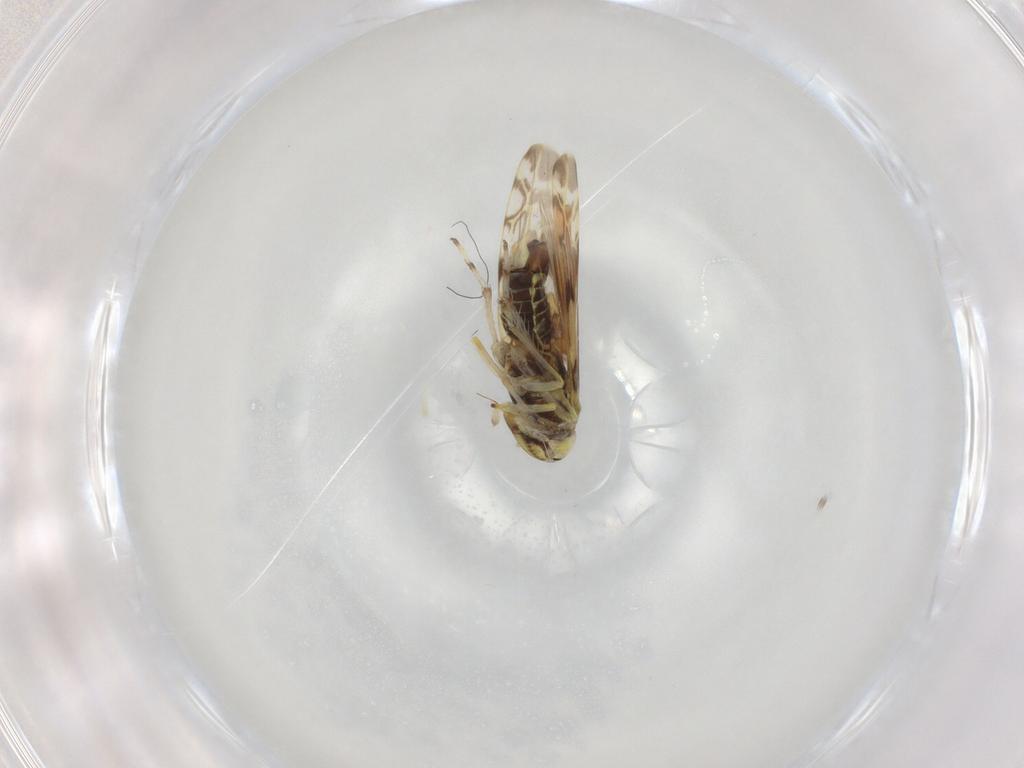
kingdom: Animalia
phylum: Arthropoda
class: Insecta
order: Hemiptera
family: Cicadellidae
